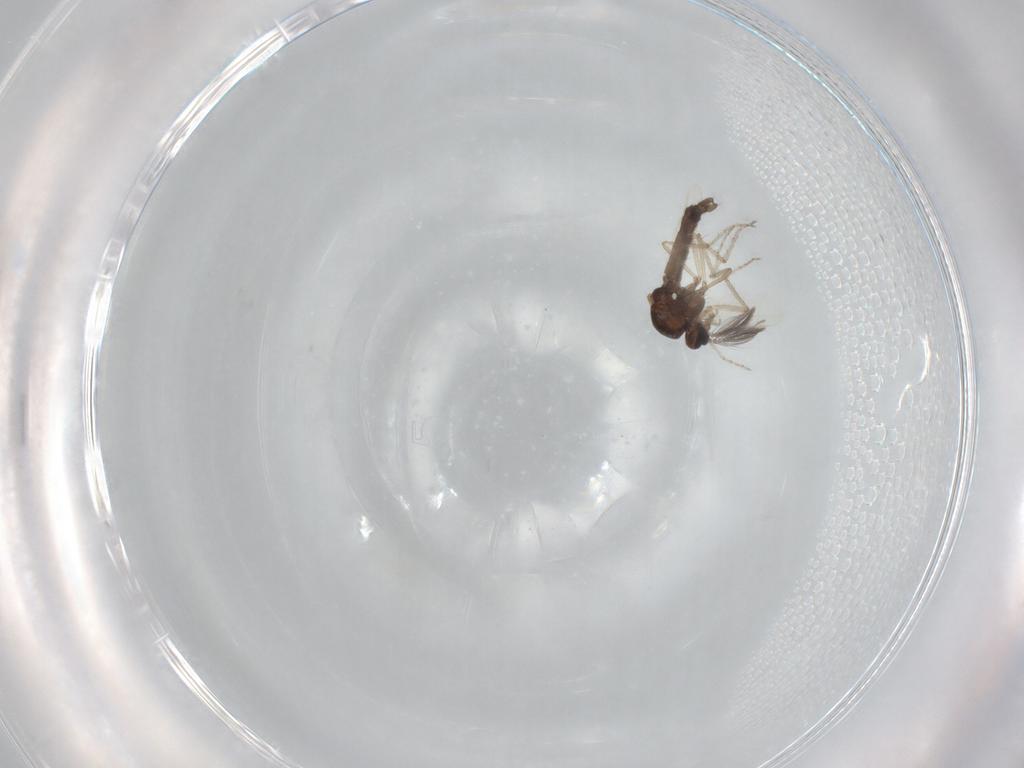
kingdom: Animalia
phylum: Arthropoda
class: Insecta
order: Diptera
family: Ceratopogonidae
